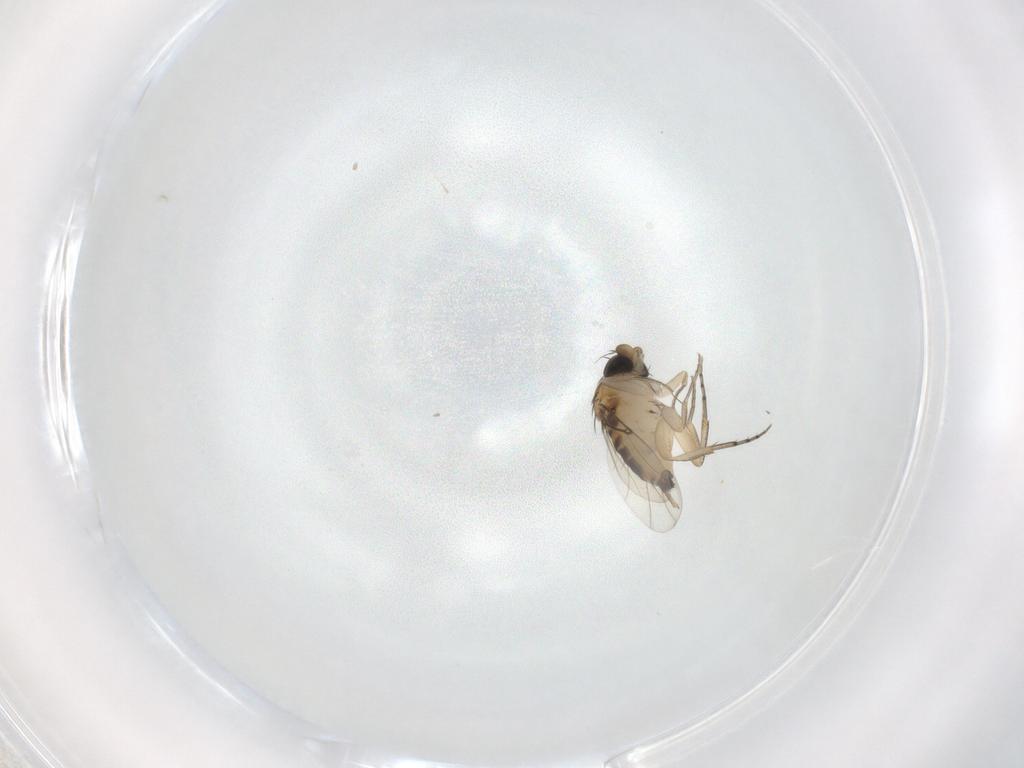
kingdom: Animalia
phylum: Arthropoda
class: Insecta
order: Diptera
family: Phoridae
